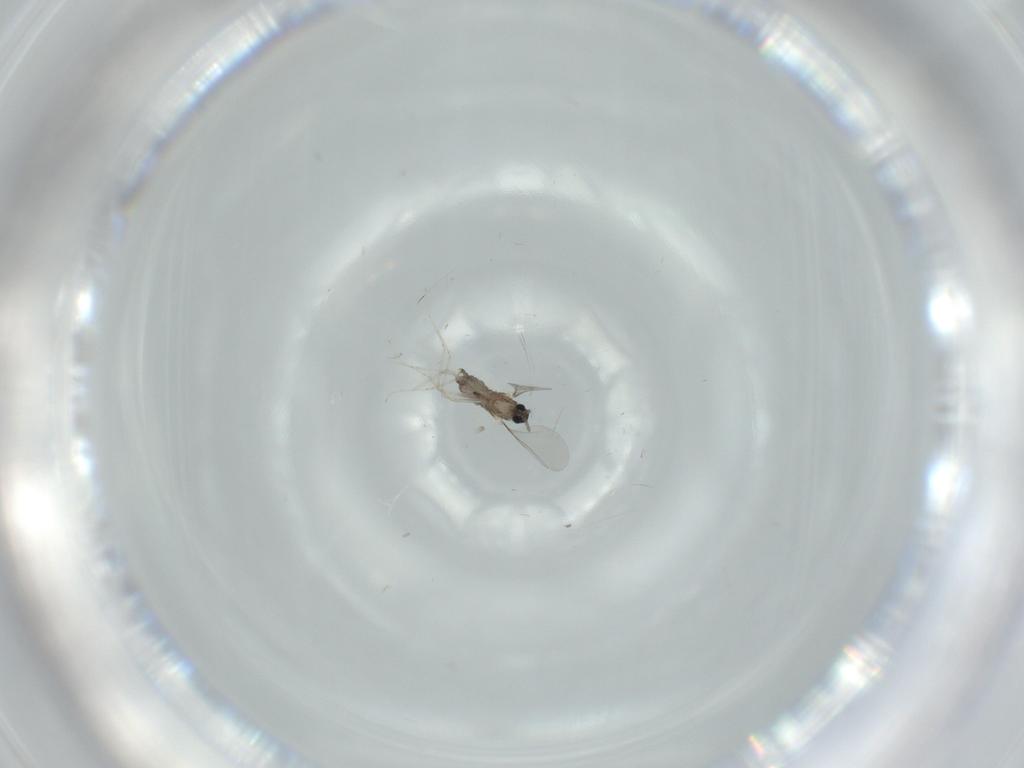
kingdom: Animalia
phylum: Arthropoda
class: Insecta
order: Diptera
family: Cecidomyiidae
